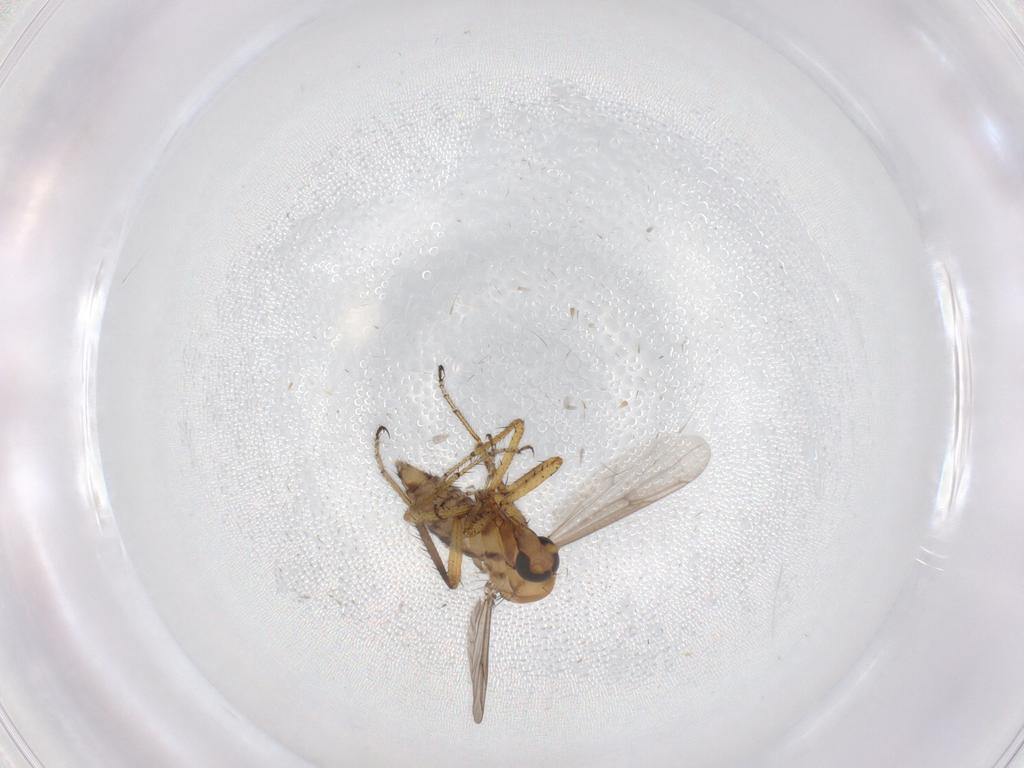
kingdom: Animalia
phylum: Arthropoda
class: Insecta
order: Diptera
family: Ceratopogonidae
